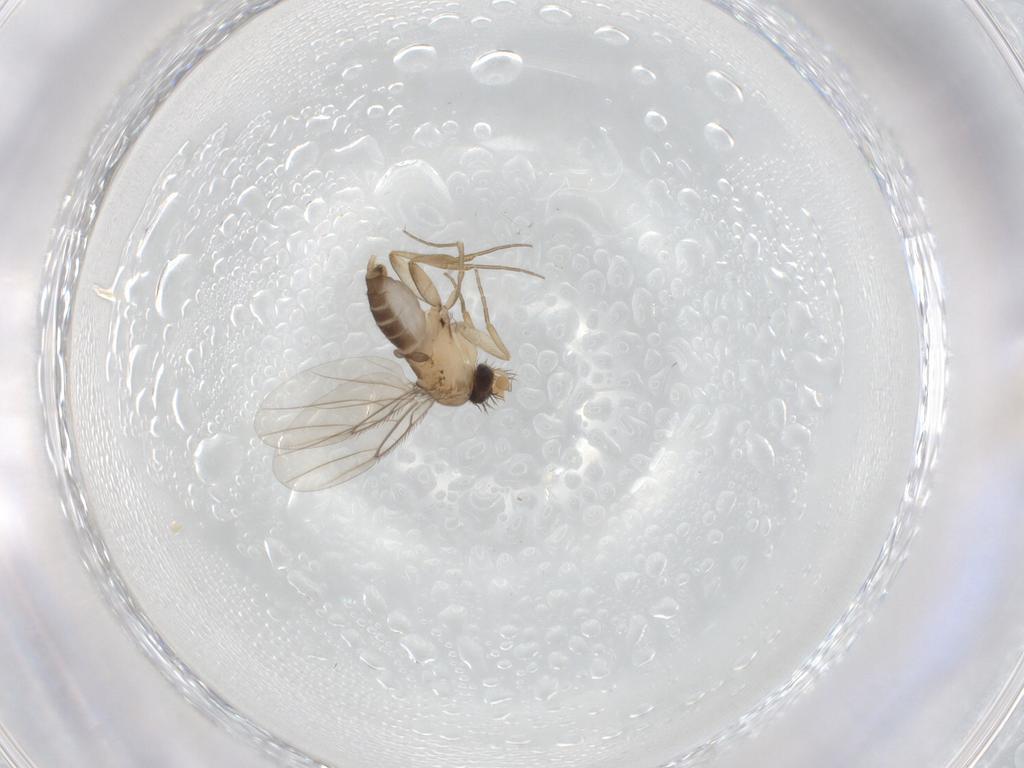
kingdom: Animalia
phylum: Arthropoda
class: Insecta
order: Diptera
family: Phoridae
